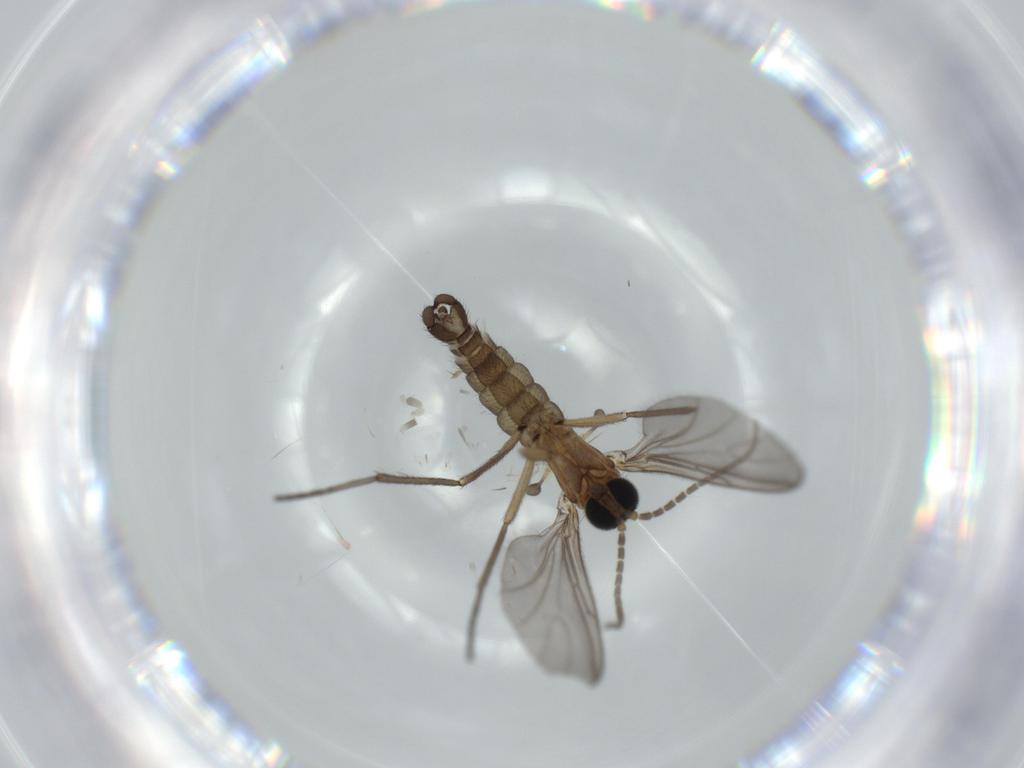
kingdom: Animalia
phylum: Arthropoda
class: Insecta
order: Diptera
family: Sciaridae
